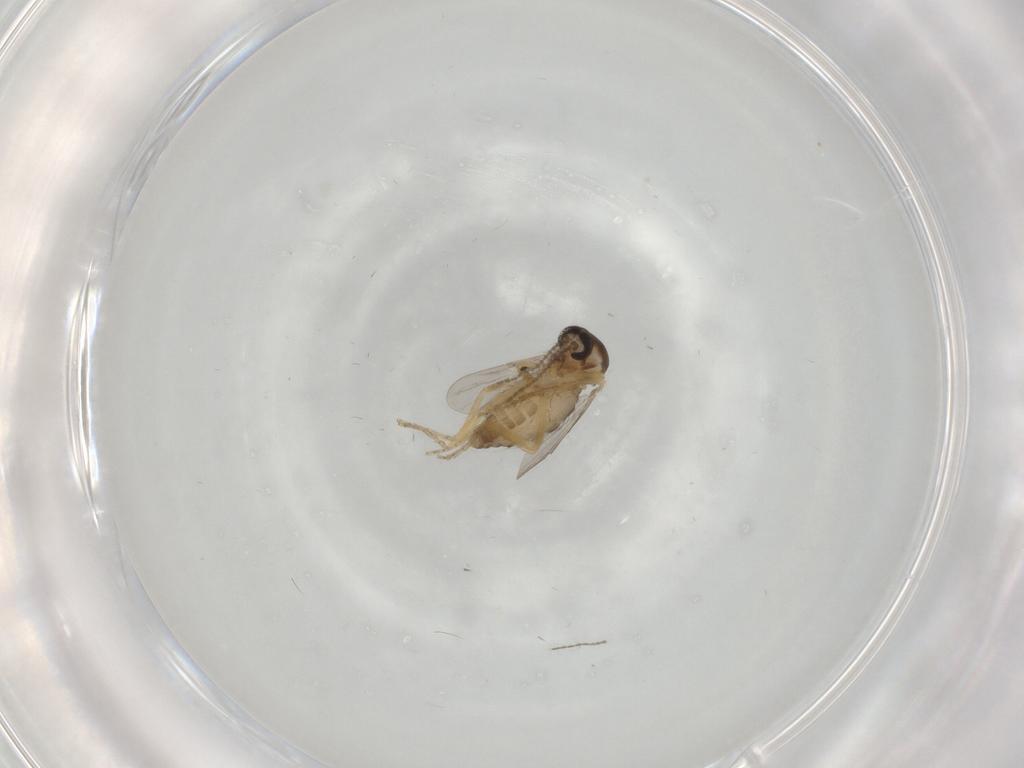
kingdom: Animalia
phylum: Arthropoda
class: Insecta
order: Diptera
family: Ceratopogonidae
